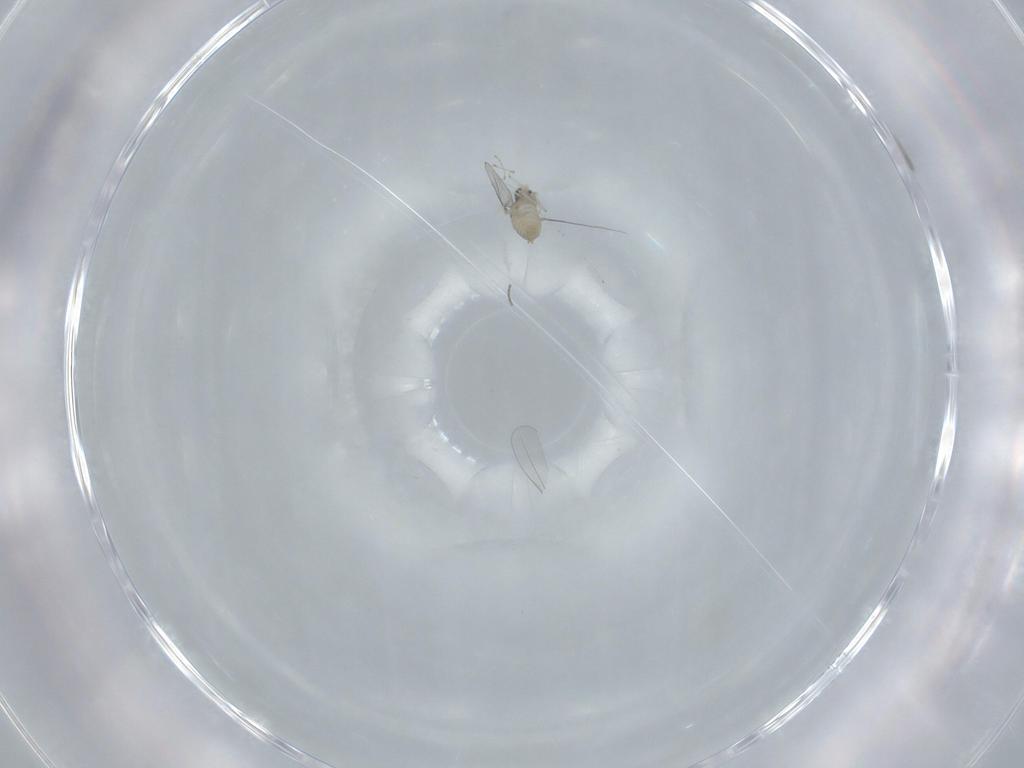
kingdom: Animalia
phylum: Arthropoda
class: Insecta
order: Diptera
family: Cecidomyiidae
